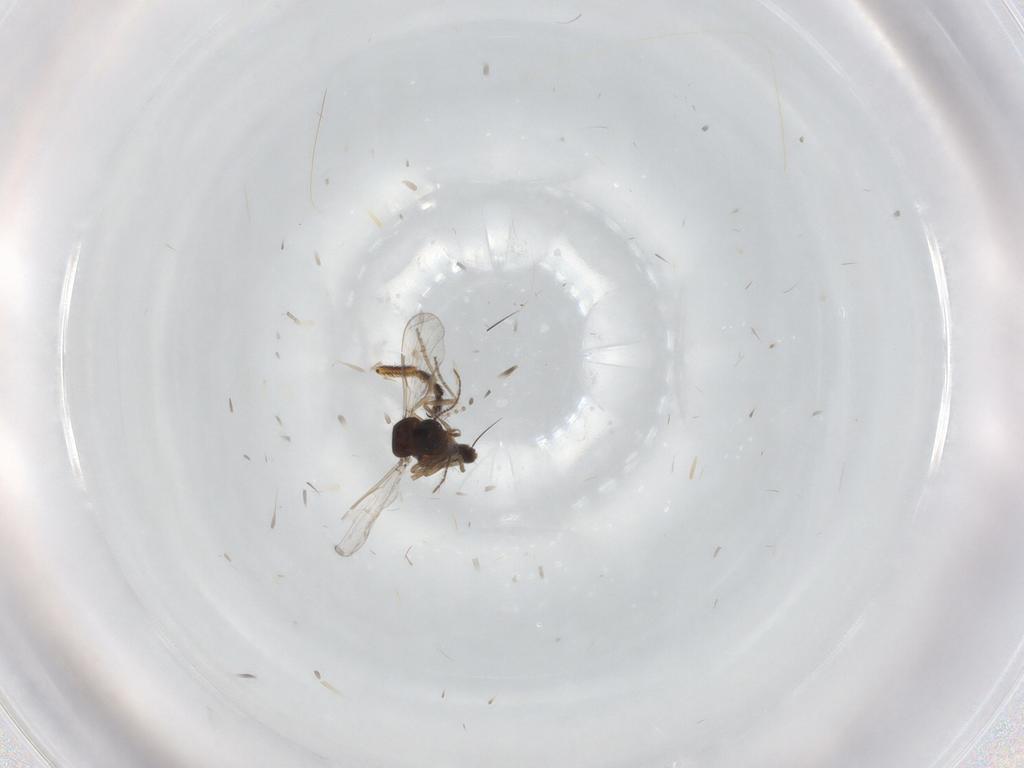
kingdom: Animalia
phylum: Arthropoda
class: Insecta
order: Diptera
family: Ceratopogonidae
